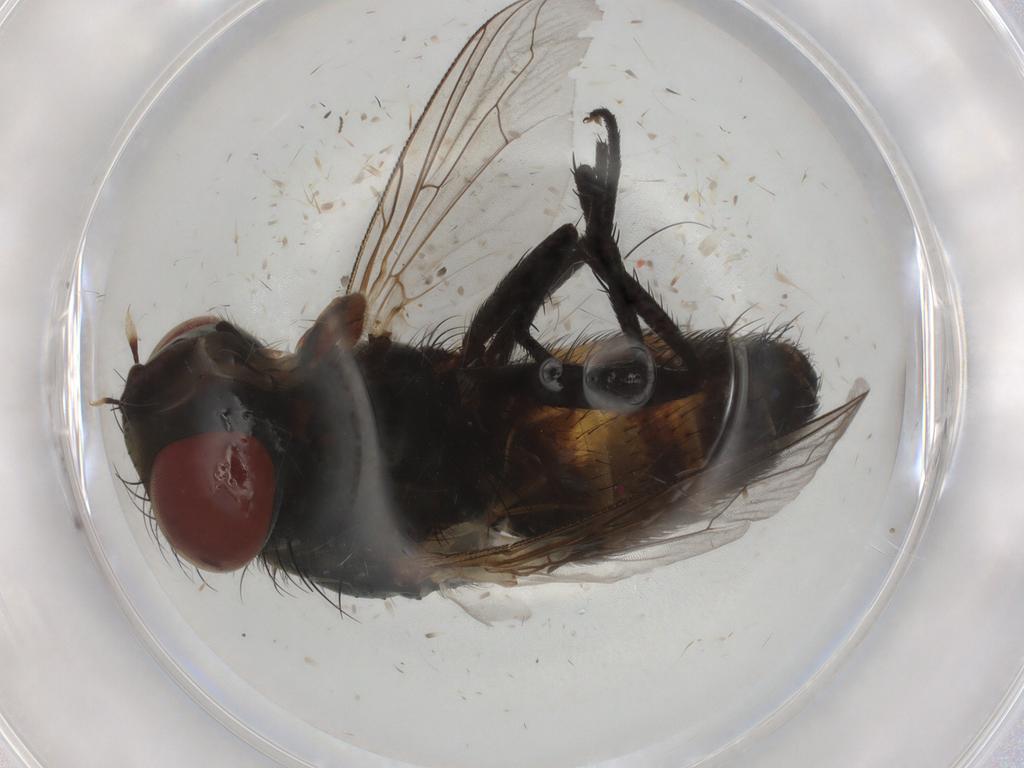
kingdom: Animalia
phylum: Arthropoda
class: Insecta
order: Diptera
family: Sarcophagidae
